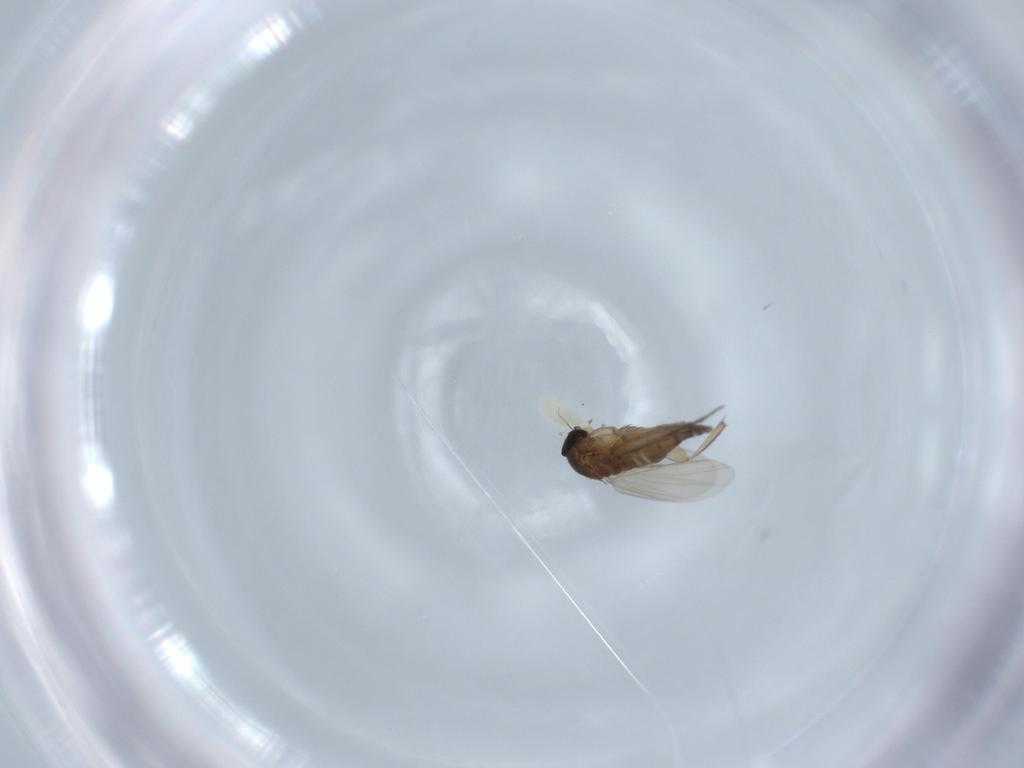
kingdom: Animalia
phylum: Arthropoda
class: Insecta
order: Diptera
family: Phoridae
